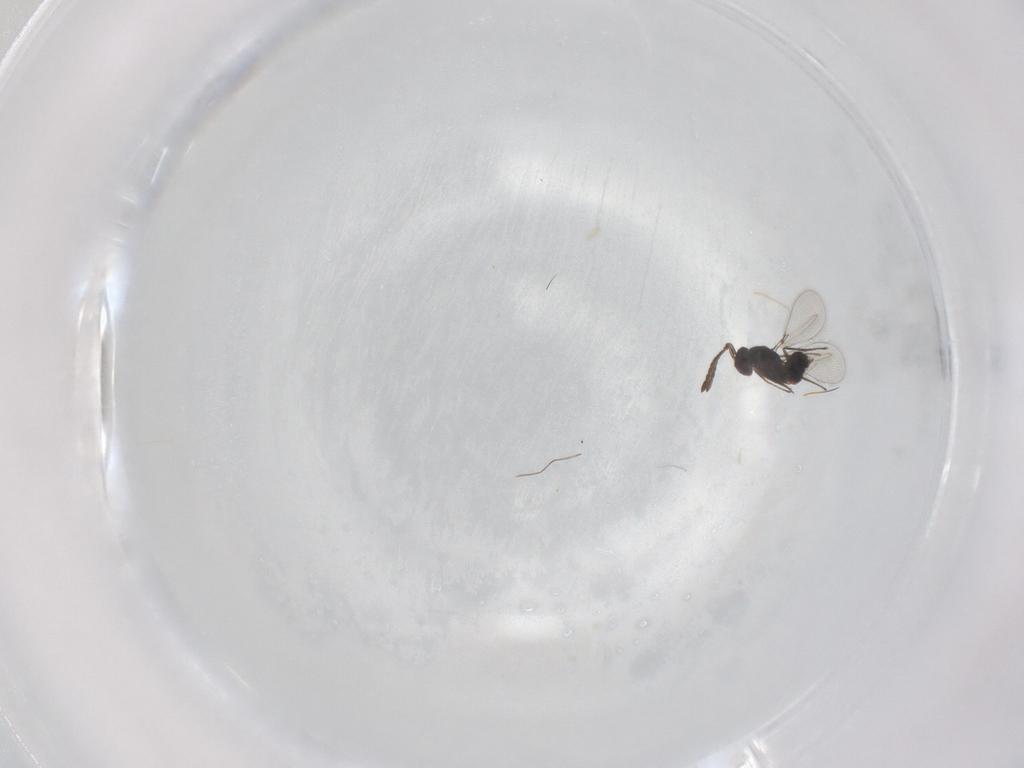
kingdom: Animalia
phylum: Arthropoda
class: Insecta
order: Hymenoptera
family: Mymaridae
